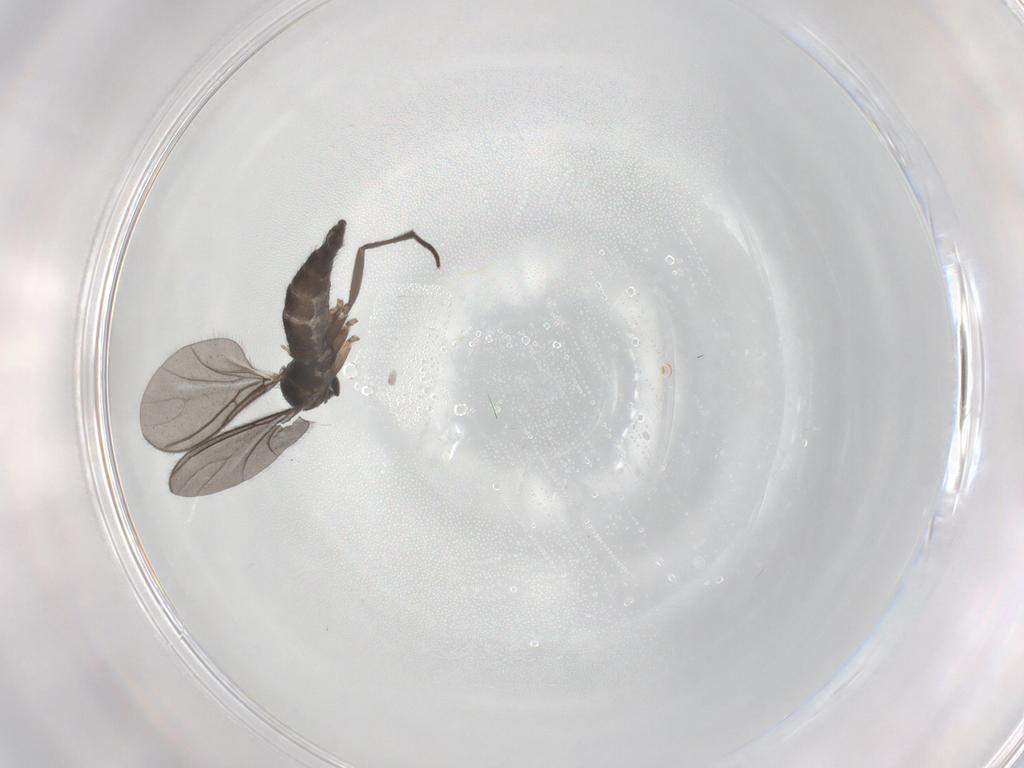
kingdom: Animalia
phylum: Arthropoda
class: Insecta
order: Diptera
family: Sciaridae
